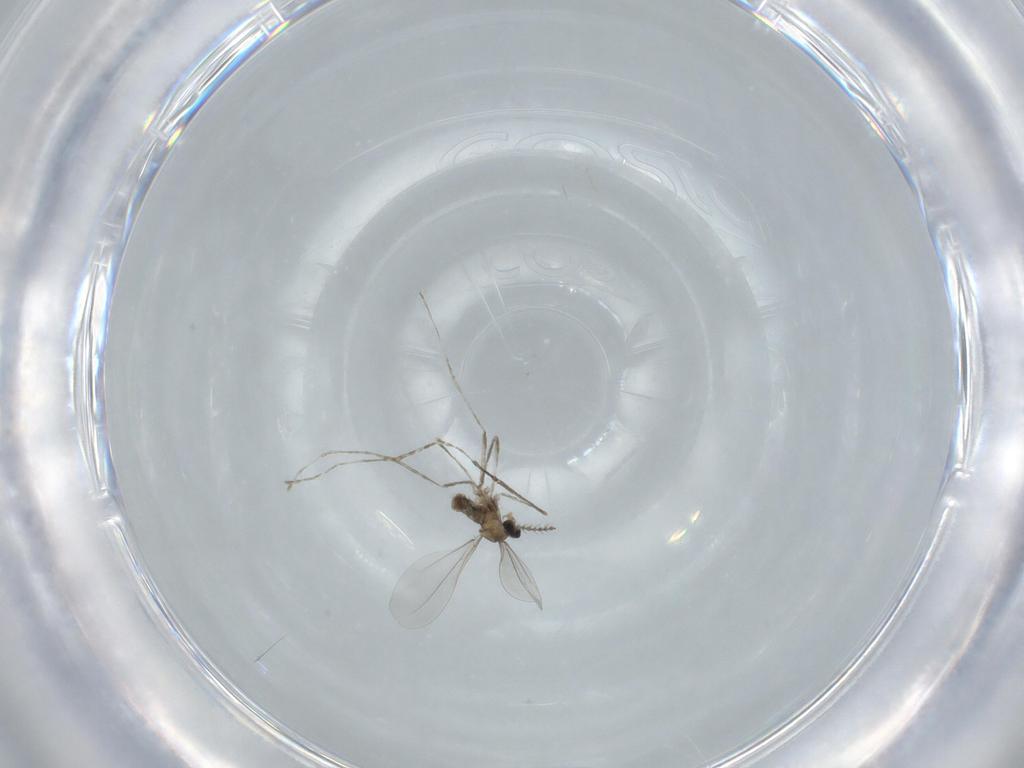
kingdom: Animalia
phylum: Arthropoda
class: Insecta
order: Diptera
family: Cecidomyiidae
